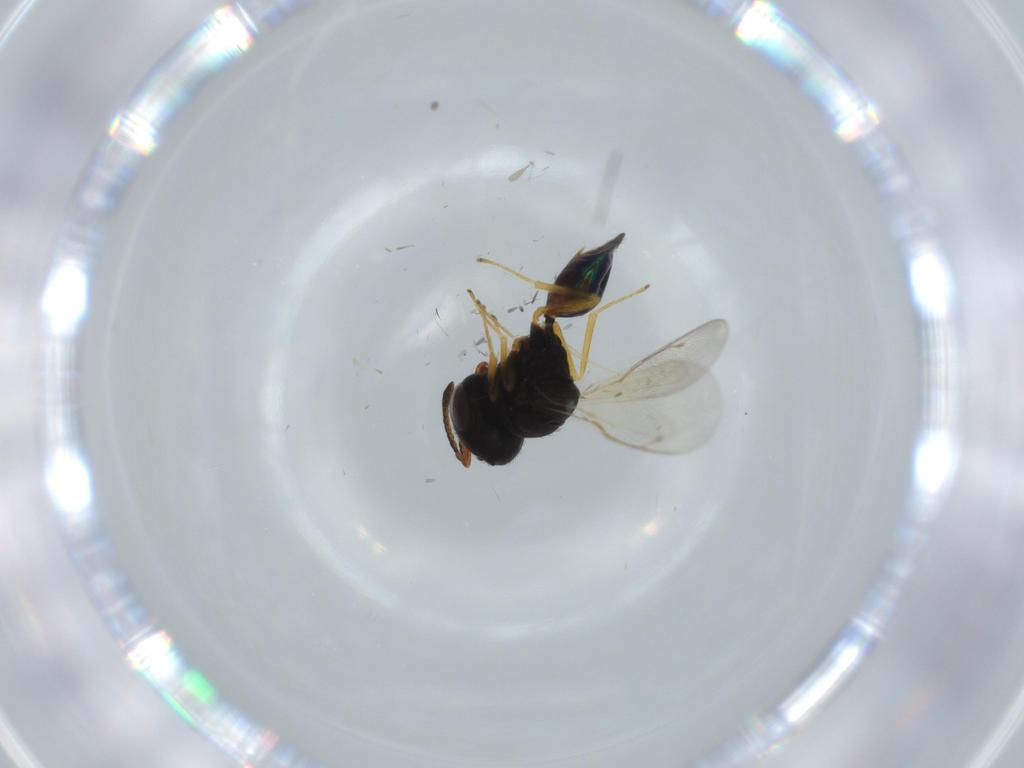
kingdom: Animalia
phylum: Arthropoda
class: Insecta
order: Hymenoptera
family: Pteromalidae
